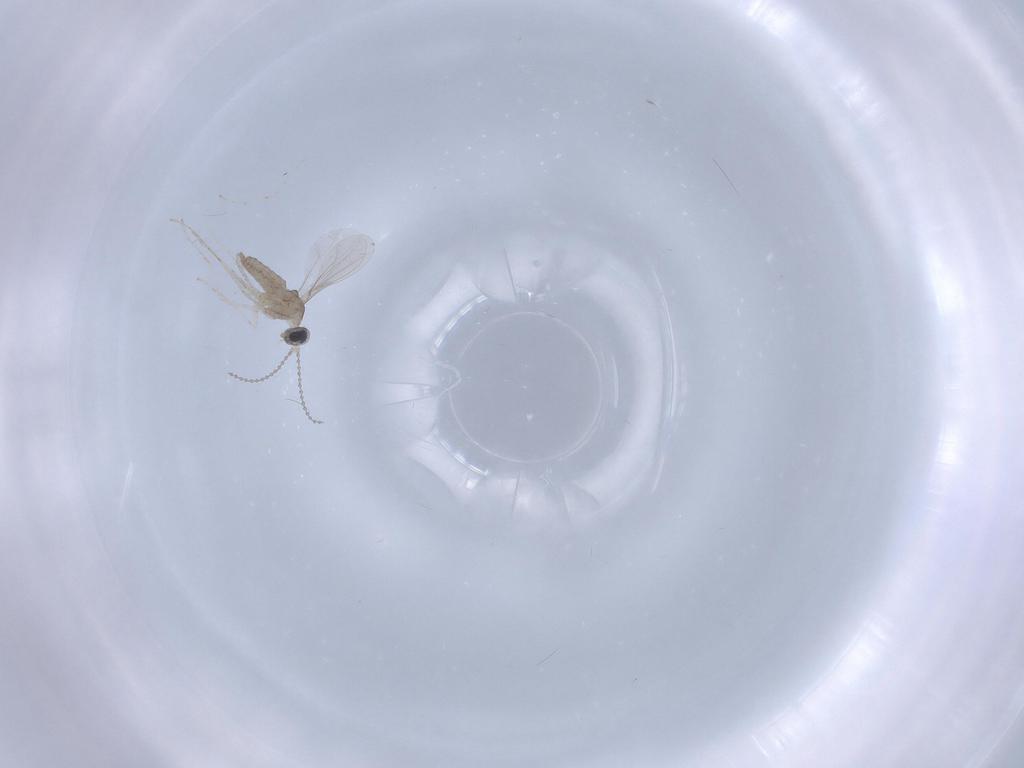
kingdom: Animalia
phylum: Arthropoda
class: Insecta
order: Diptera
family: Cecidomyiidae
